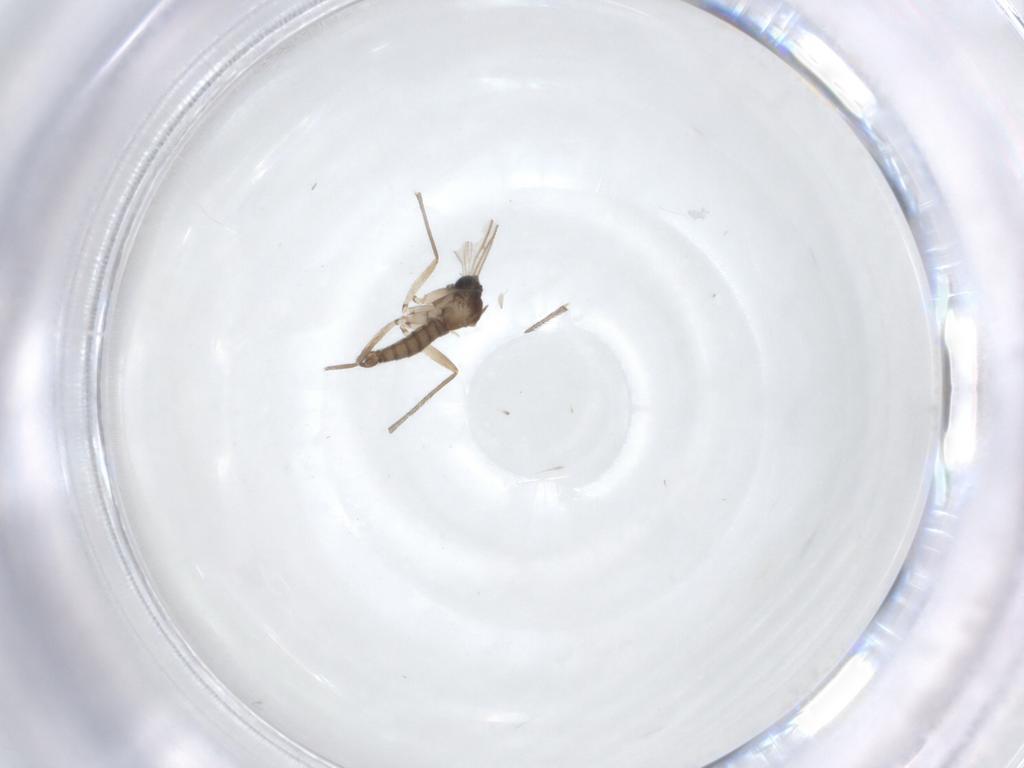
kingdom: Animalia
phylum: Arthropoda
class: Insecta
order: Diptera
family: Sciaridae
